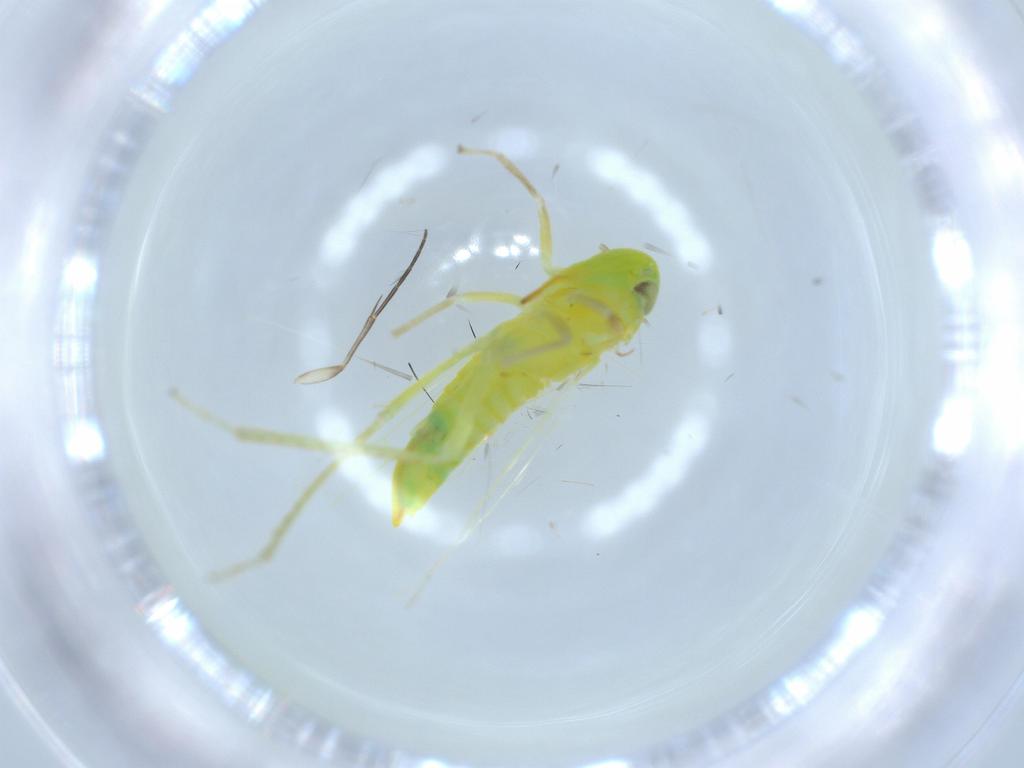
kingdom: Animalia
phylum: Arthropoda
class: Insecta
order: Hemiptera
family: Cicadellidae
